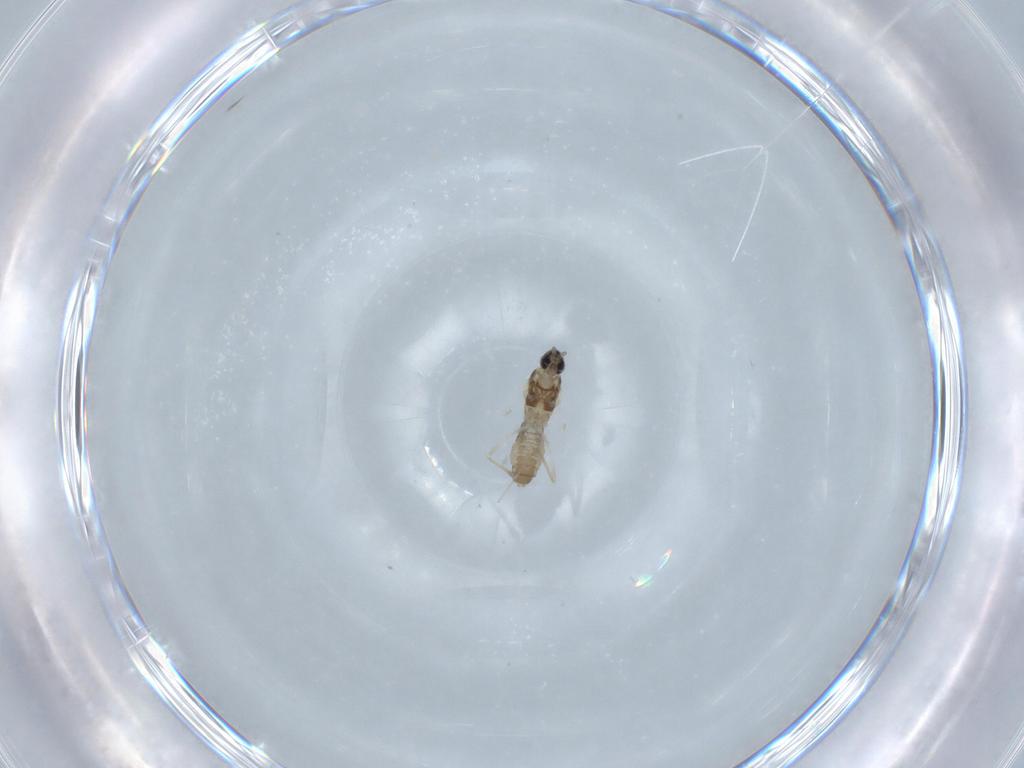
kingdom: Animalia
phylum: Arthropoda
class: Insecta
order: Diptera
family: Cecidomyiidae
